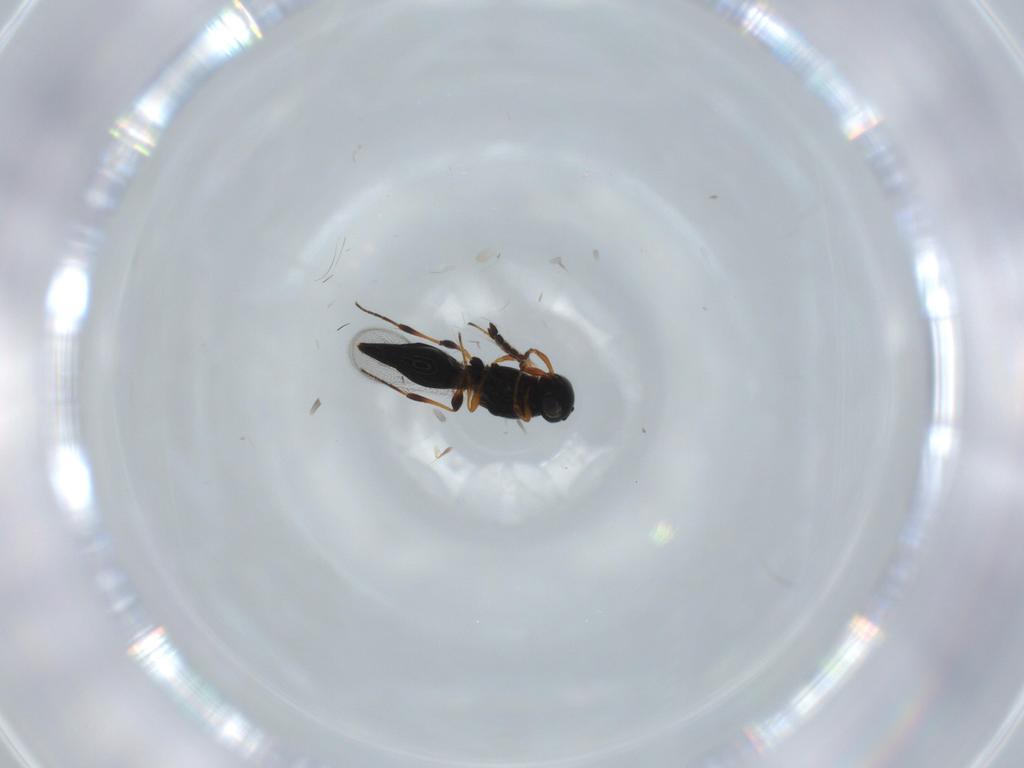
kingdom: Animalia
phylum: Arthropoda
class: Insecta
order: Hymenoptera
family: Platygastridae
